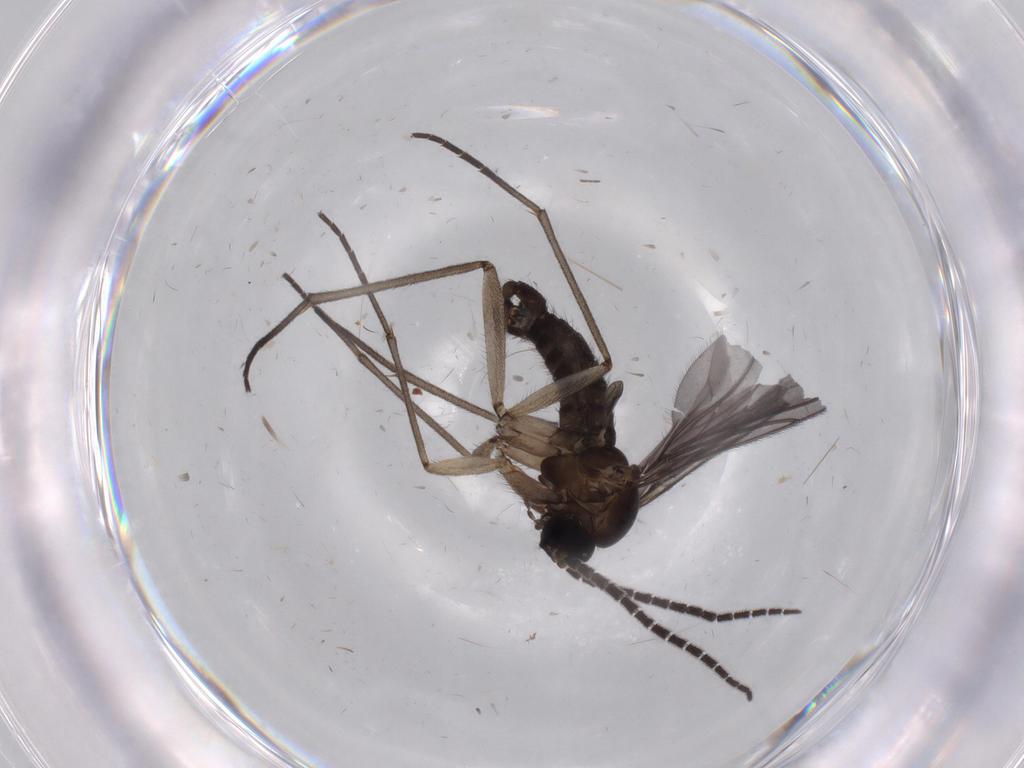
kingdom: Animalia
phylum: Arthropoda
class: Insecta
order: Diptera
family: Sciaridae
